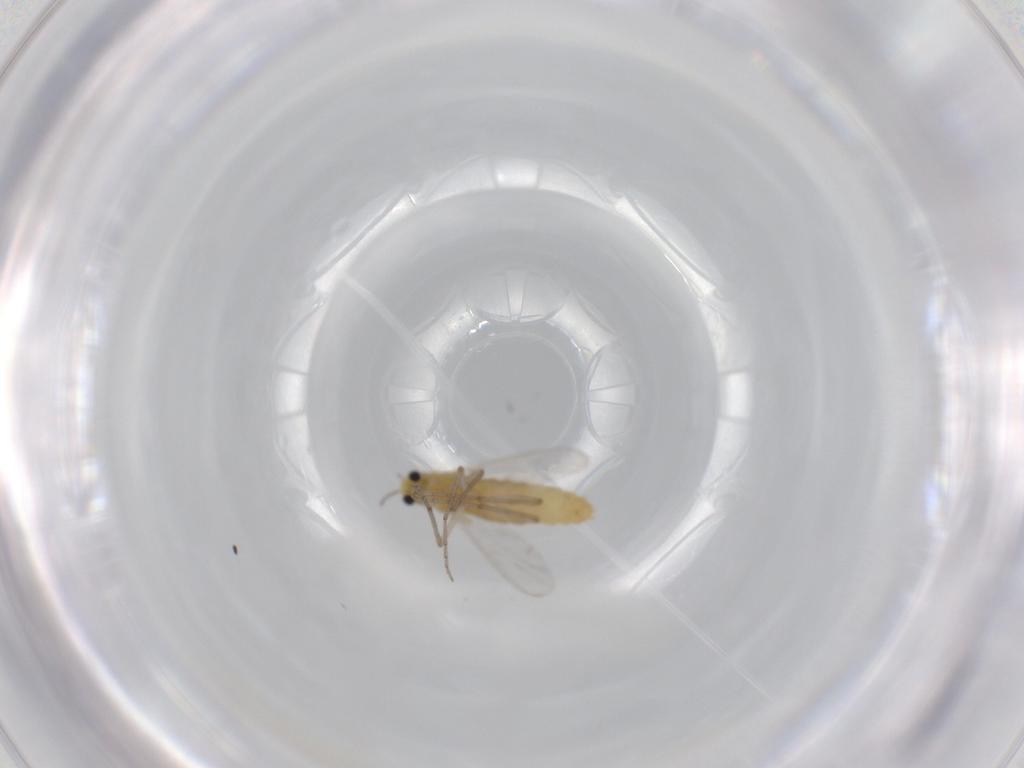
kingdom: Animalia
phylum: Arthropoda
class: Insecta
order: Diptera
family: Chironomidae
